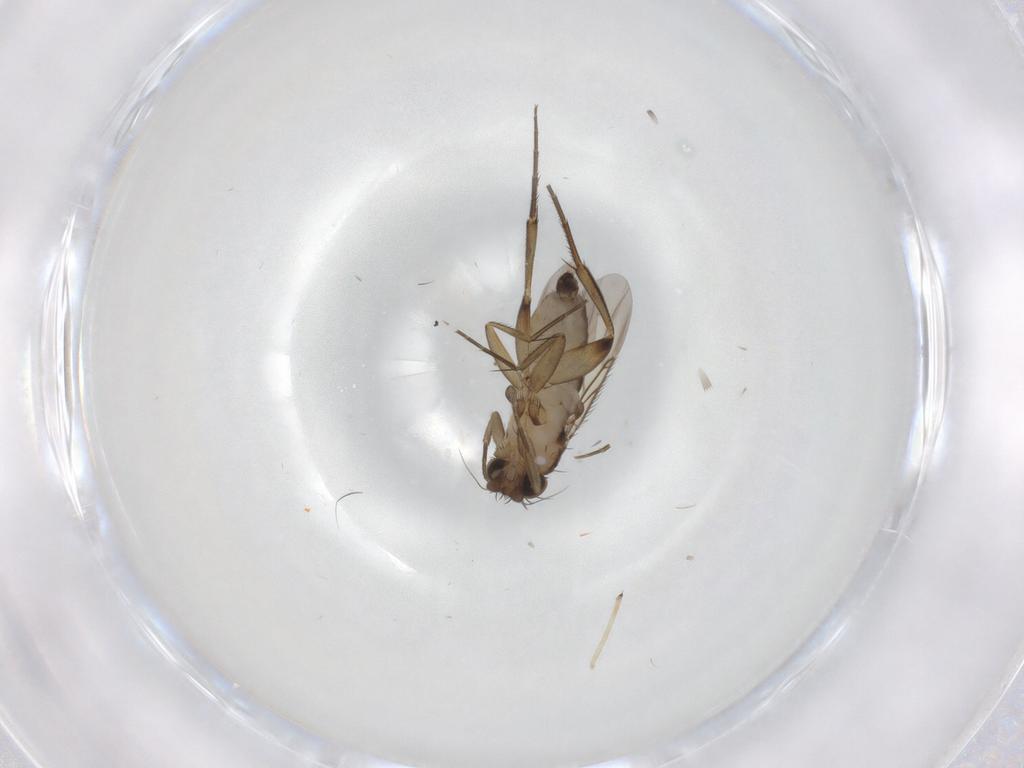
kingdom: Animalia
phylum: Arthropoda
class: Insecta
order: Diptera
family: Phoridae
